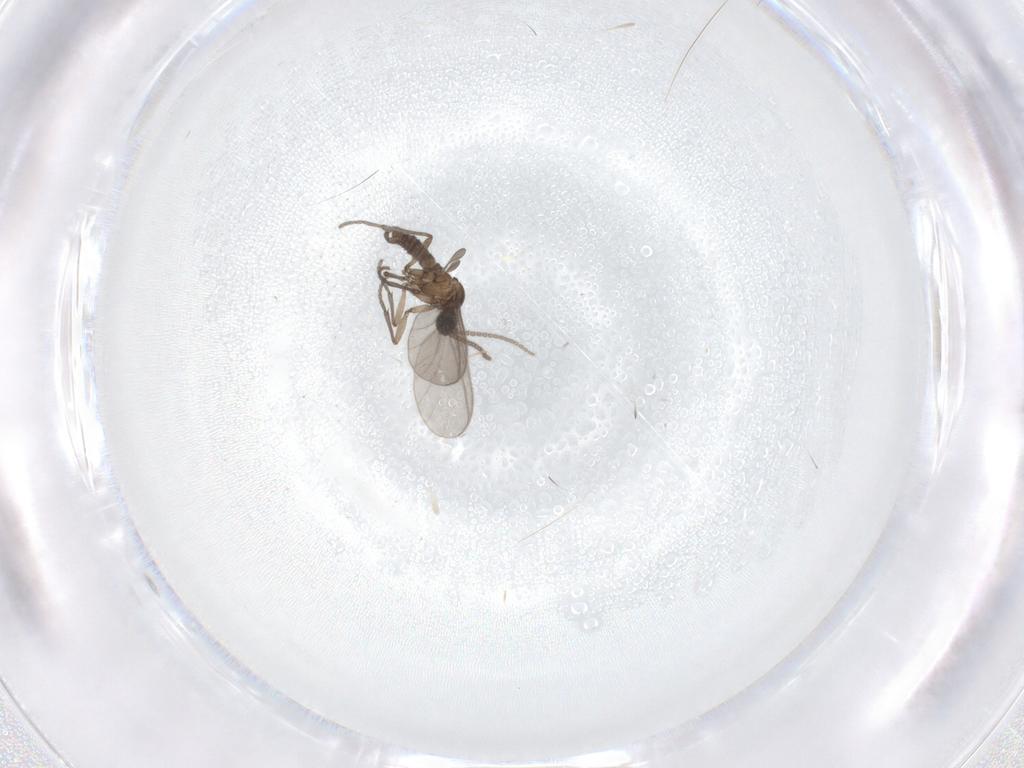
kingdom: Animalia
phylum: Arthropoda
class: Insecta
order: Diptera
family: Sciaridae
